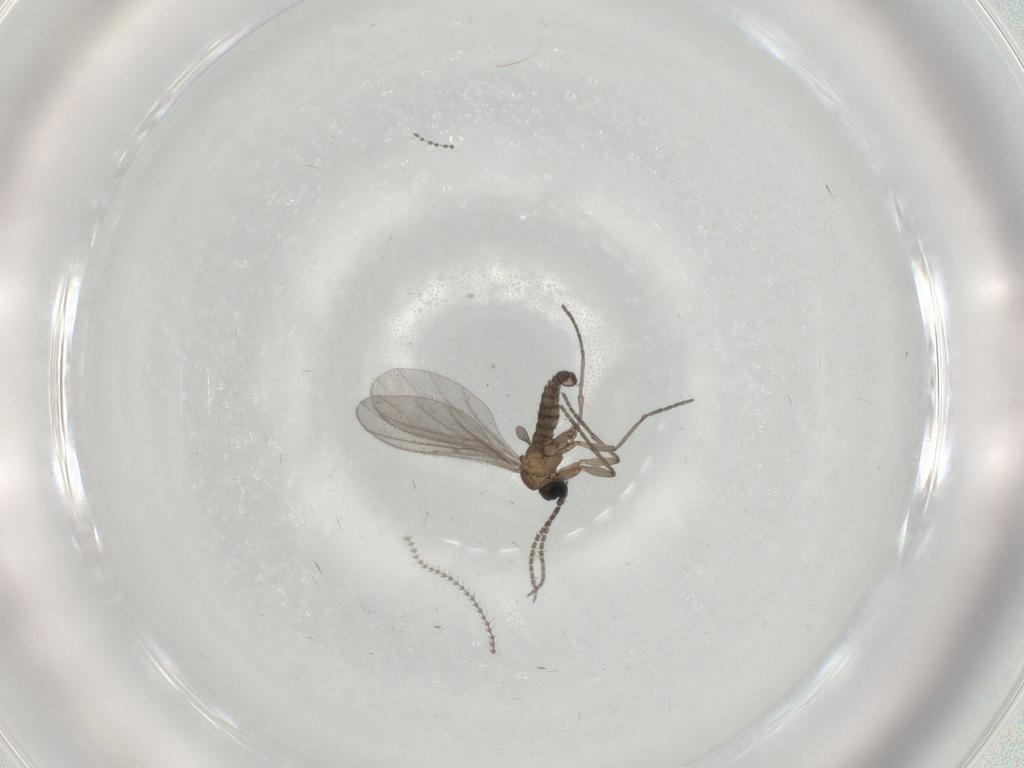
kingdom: Animalia
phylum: Arthropoda
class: Insecta
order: Diptera
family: Sciaridae
